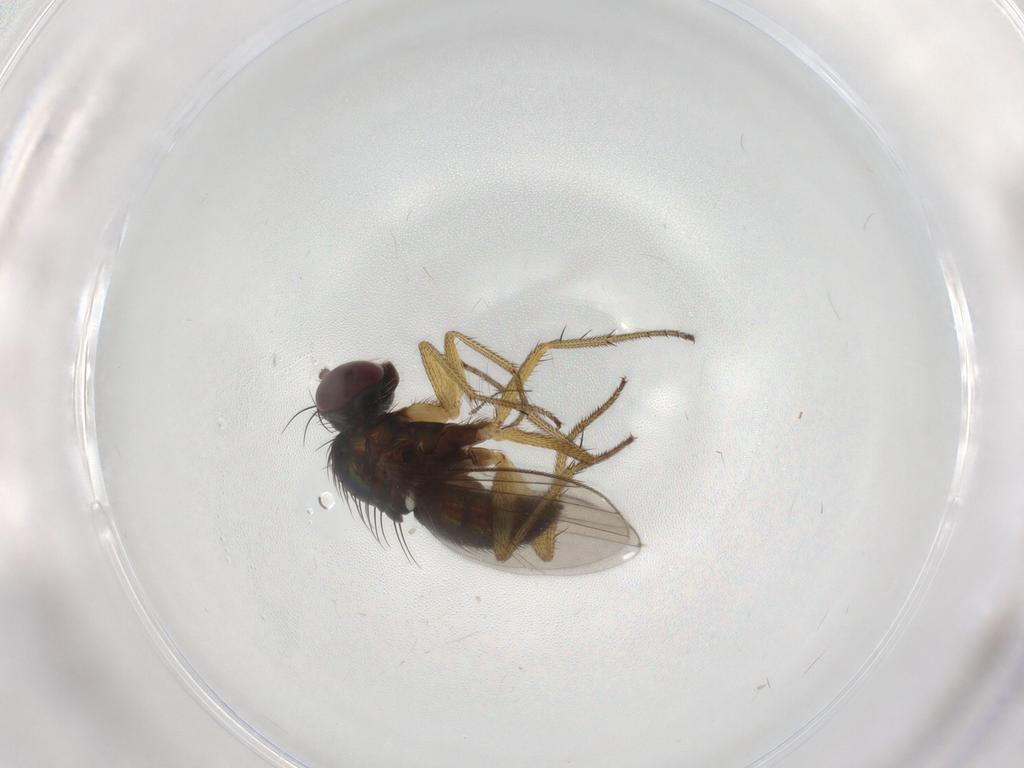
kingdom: Animalia
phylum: Arthropoda
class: Insecta
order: Diptera
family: Dolichopodidae
